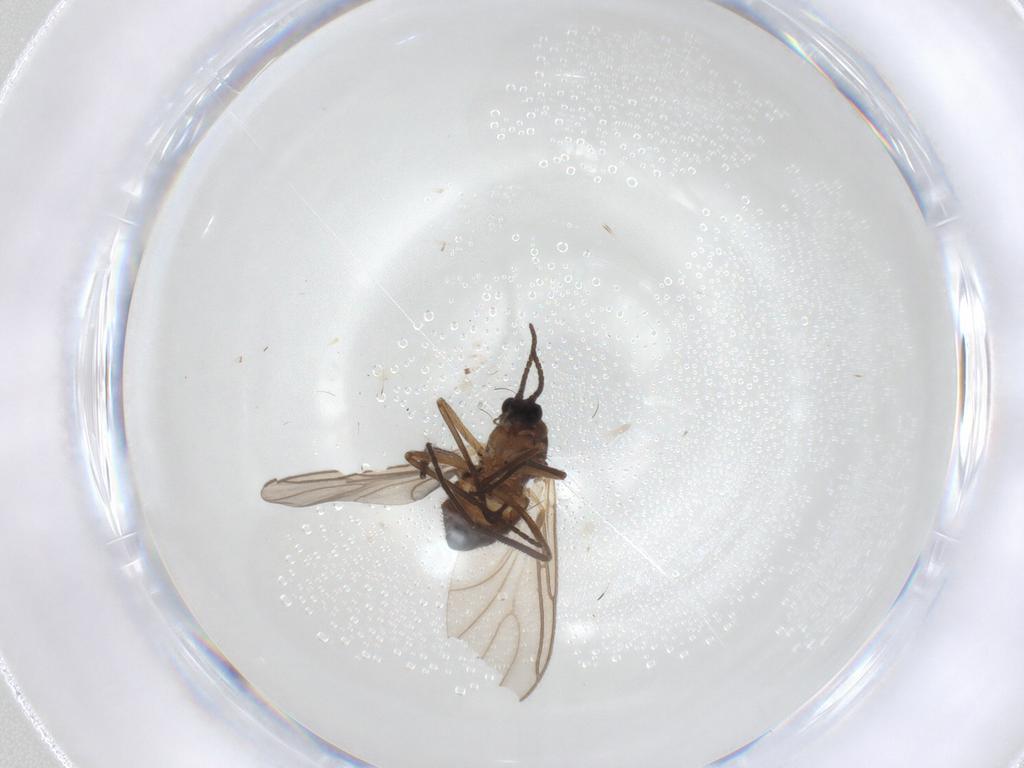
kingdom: Animalia
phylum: Arthropoda
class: Insecta
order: Diptera
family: Sciaridae
